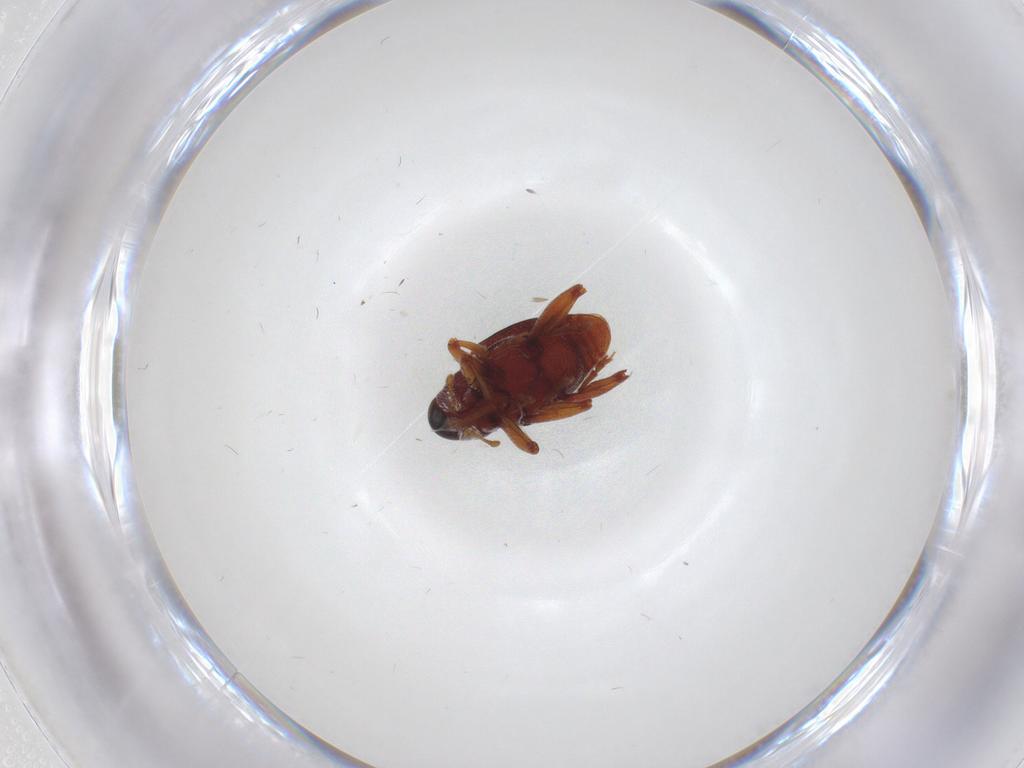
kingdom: Animalia
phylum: Arthropoda
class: Insecta
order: Coleoptera
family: Curculionidae
